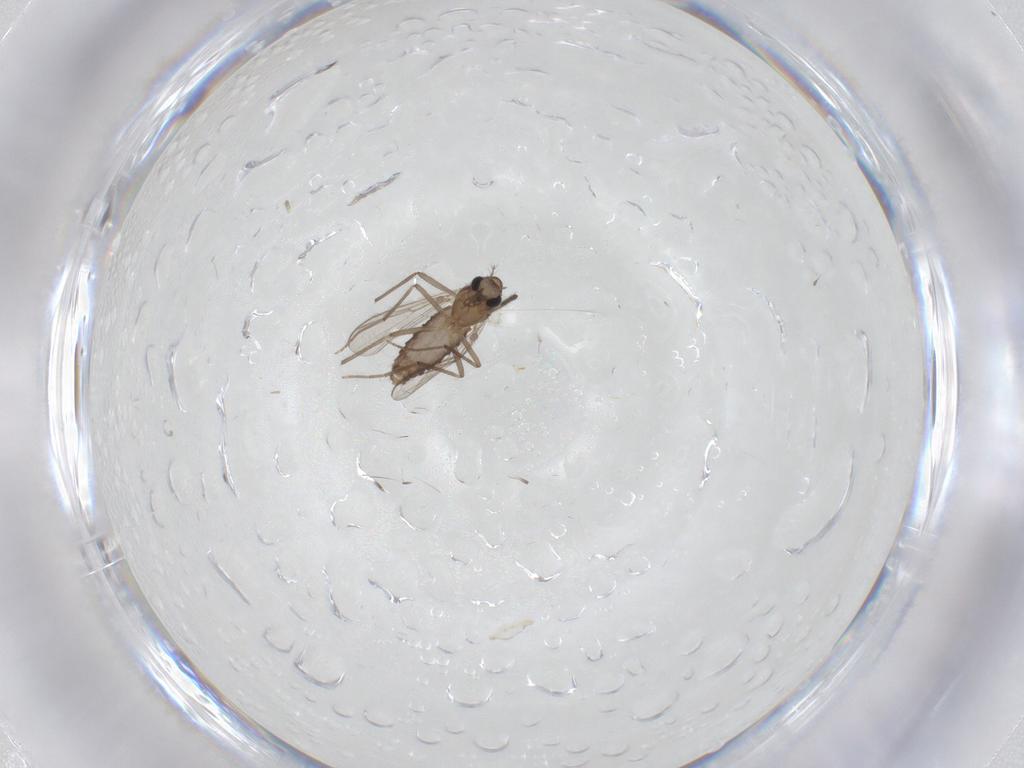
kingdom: Animalia
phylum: Arthropoda
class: Insecta
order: Diptera
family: Chironomidae
